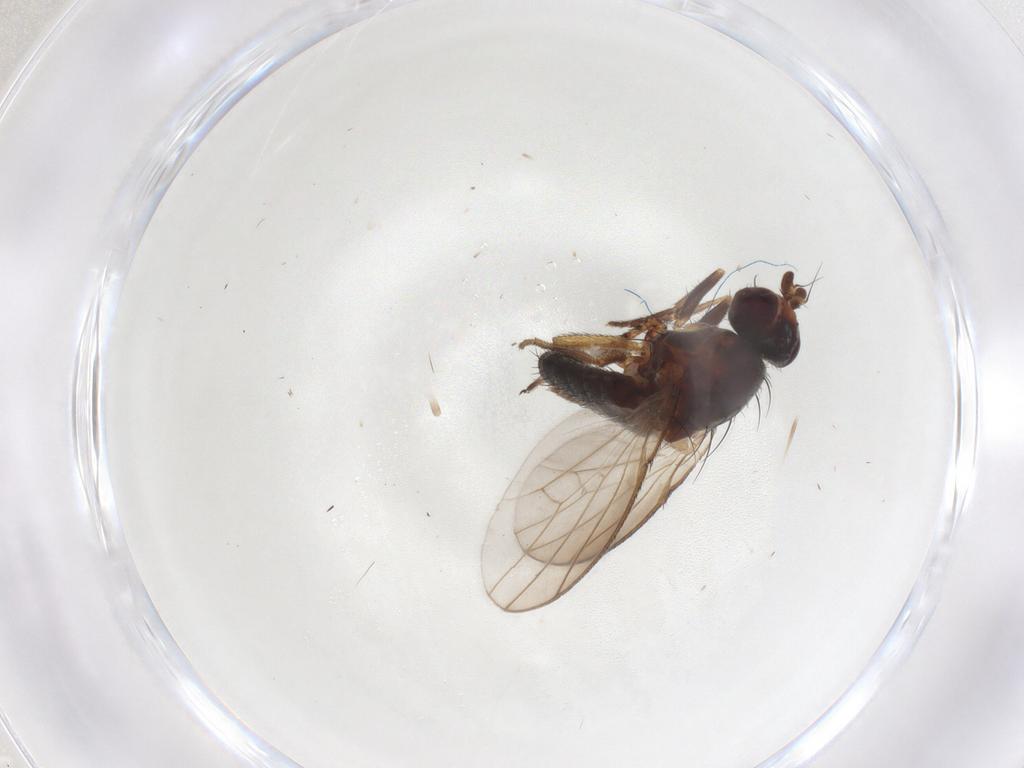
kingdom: Animalia
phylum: Arthropoda
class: Insecta
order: Diptera
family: Heleomyzidae
